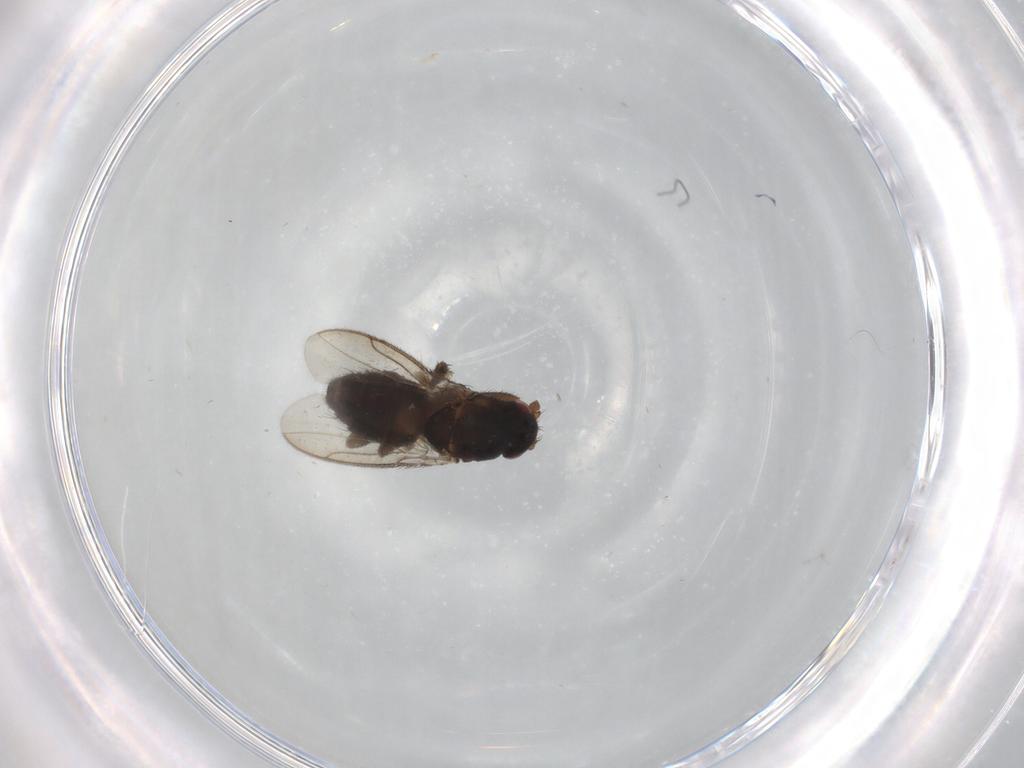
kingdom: Animalia
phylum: Arthropoda
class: Insecta
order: Diptera
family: Sphaeroceridae
